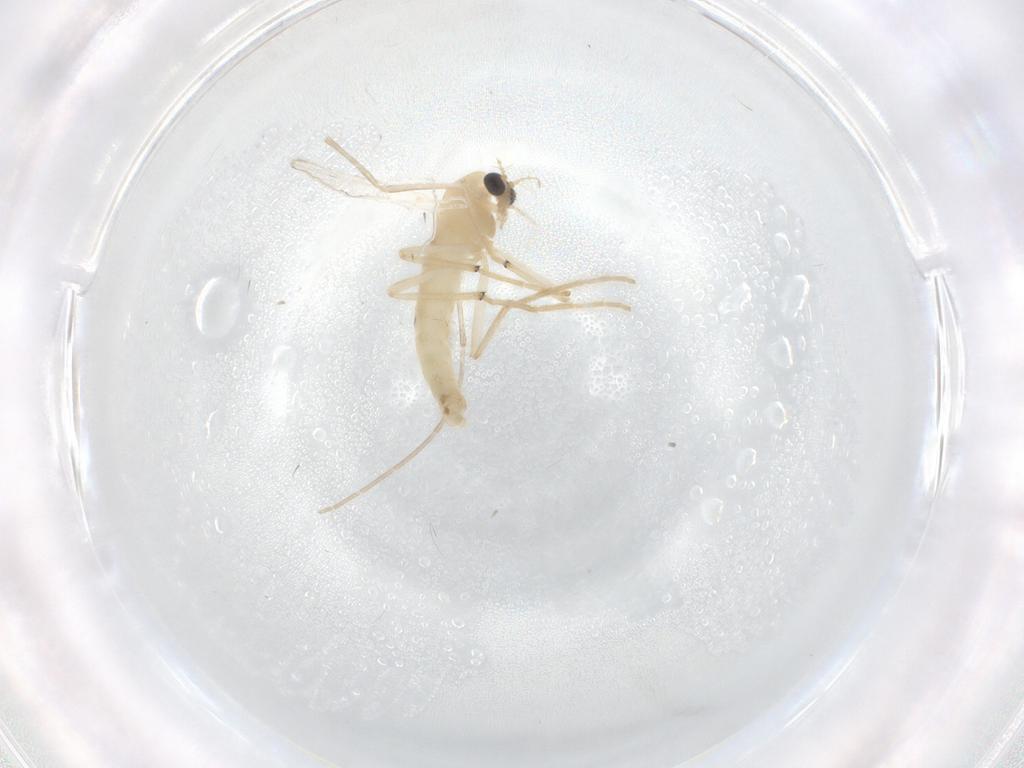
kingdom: Animalia
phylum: Arthropoda
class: Insecta
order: Diptera
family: Chironomidae
